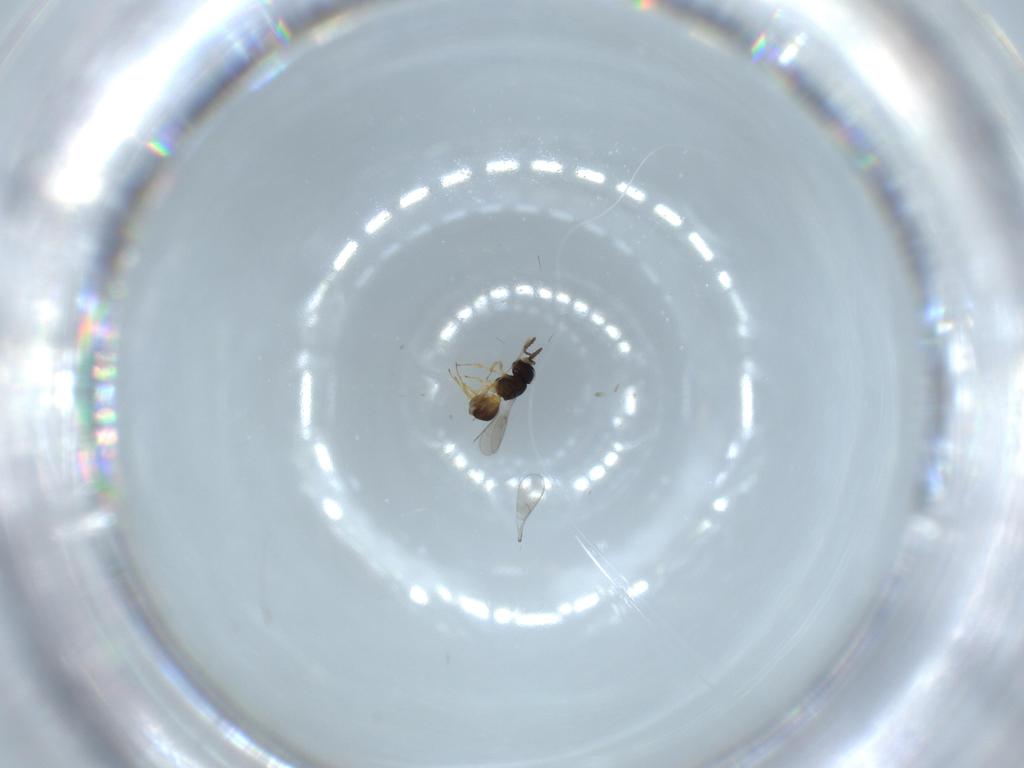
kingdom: Animalia
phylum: Arthropoda
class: Insecta
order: Hymenoptera
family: Scelionidae
